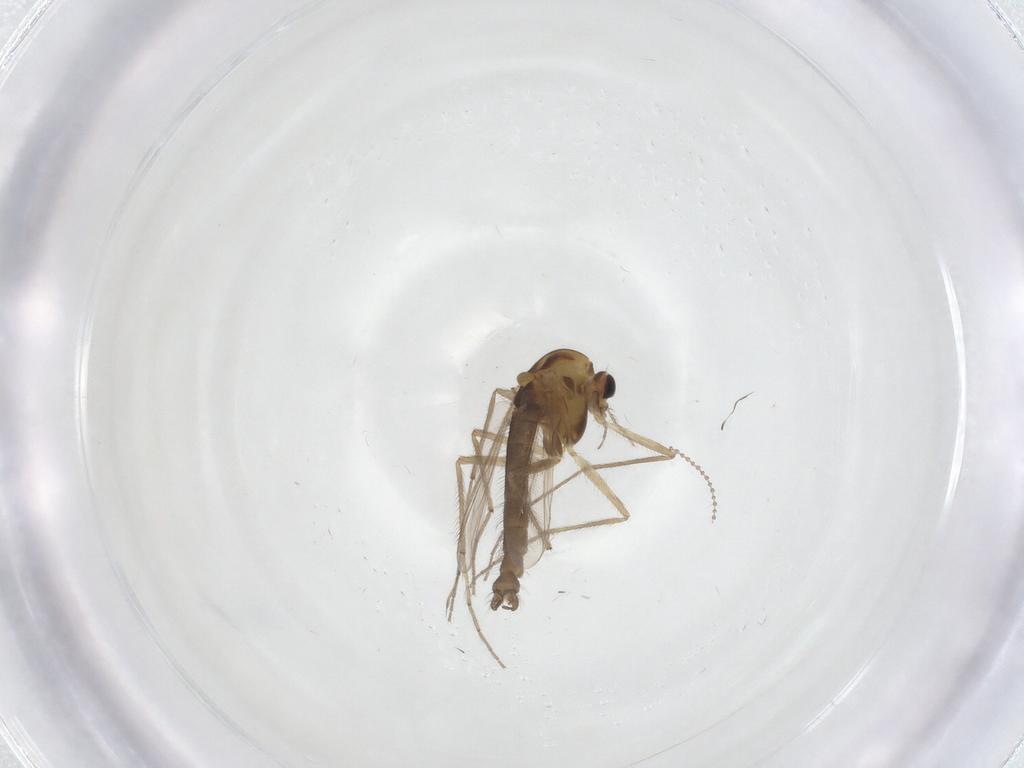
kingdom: Animalia
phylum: Arthropoda
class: Insecta
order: Diptera
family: Chironomidae
